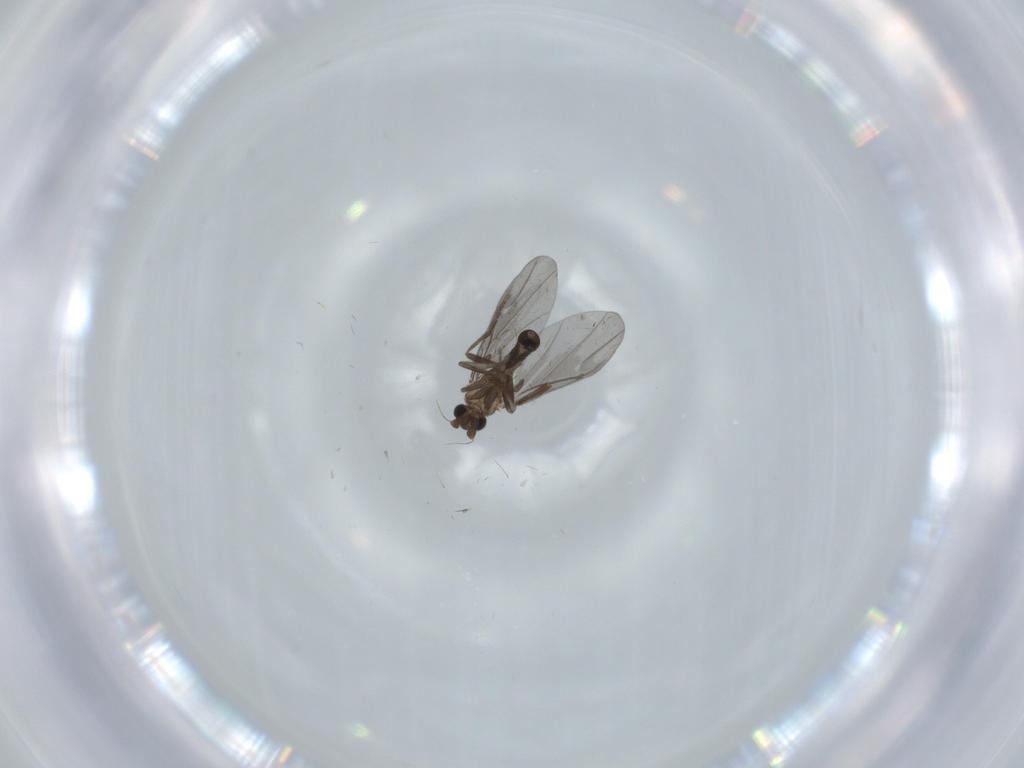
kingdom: Animalia
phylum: Arthropoda
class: Insecta
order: Diptera
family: Phoridae
